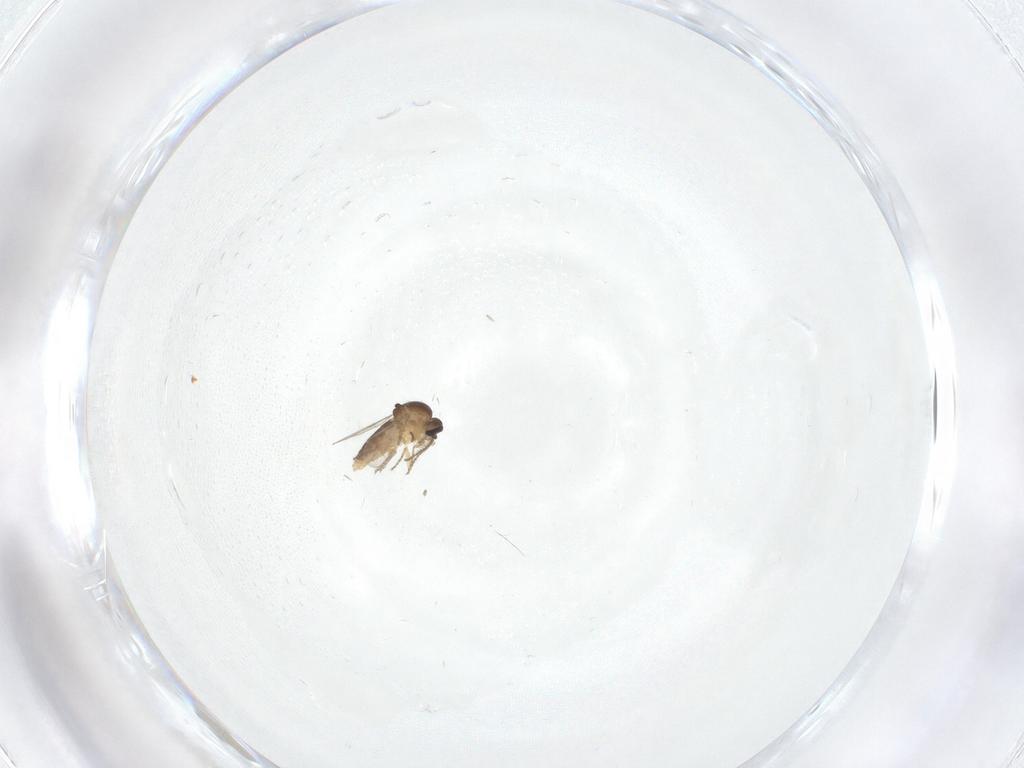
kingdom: Animalia
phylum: Arthropoda
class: Insecta
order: Diptera
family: Ceratopogonidae
